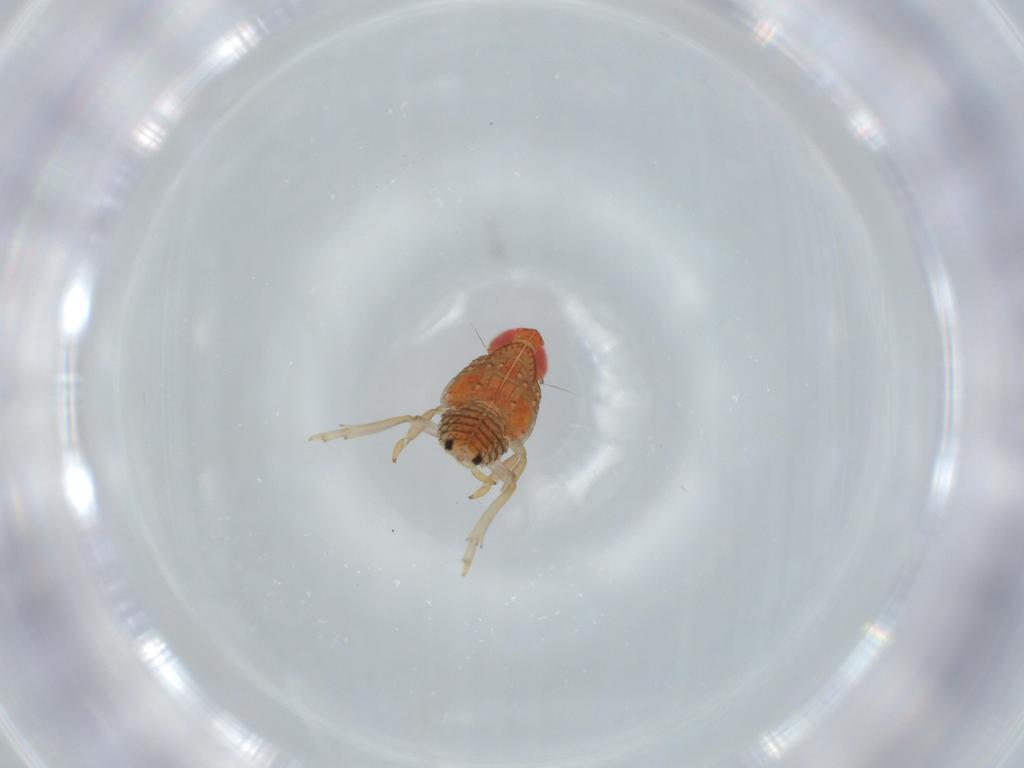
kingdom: Animalia
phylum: Arthropoda
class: Insecta
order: Hemiptera
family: Fulgoroidea_incertae_sedis
